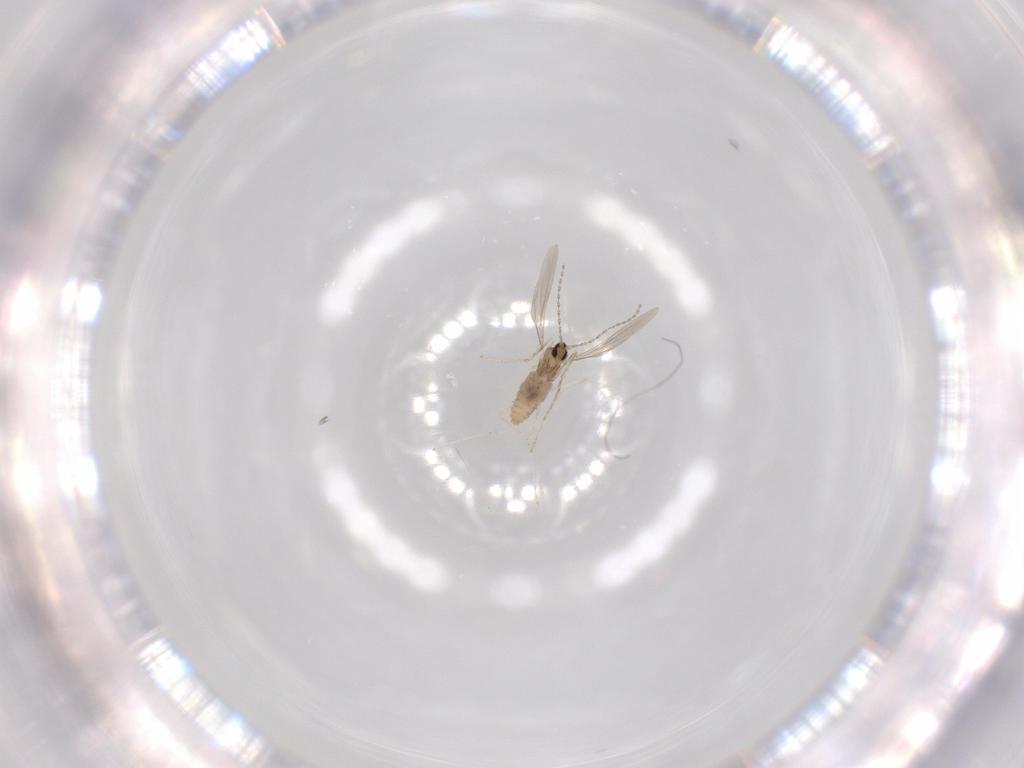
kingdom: Animalia
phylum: Arthropoda
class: Insecta
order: Diptera
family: Cecidomyiidae
